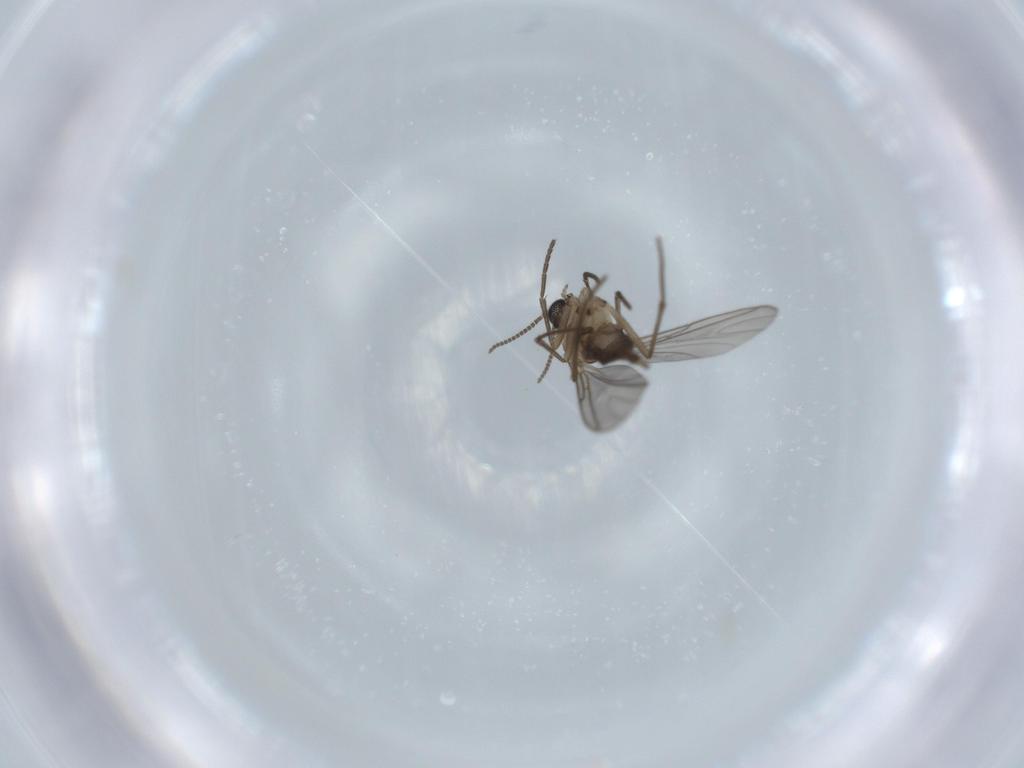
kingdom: Animalia
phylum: Arthropoda
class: Insecta
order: Diptera
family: Sciaridae
